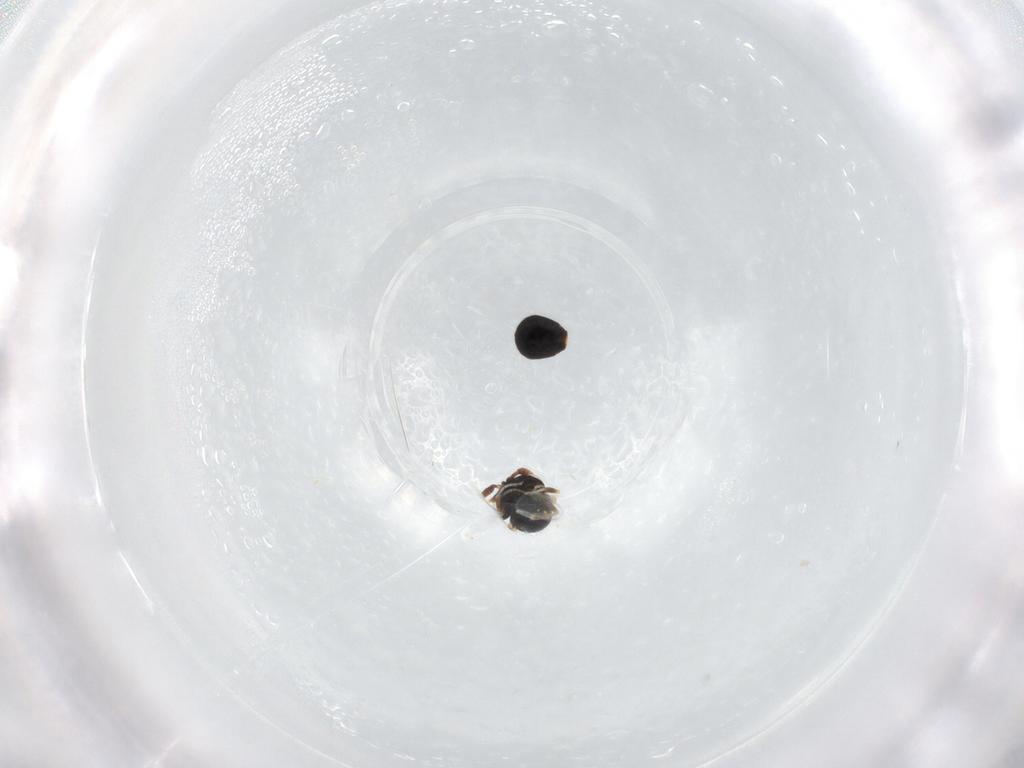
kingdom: Animalia
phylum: Arthropoda
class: Insecta
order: Hymenoptera
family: Scelionidae
